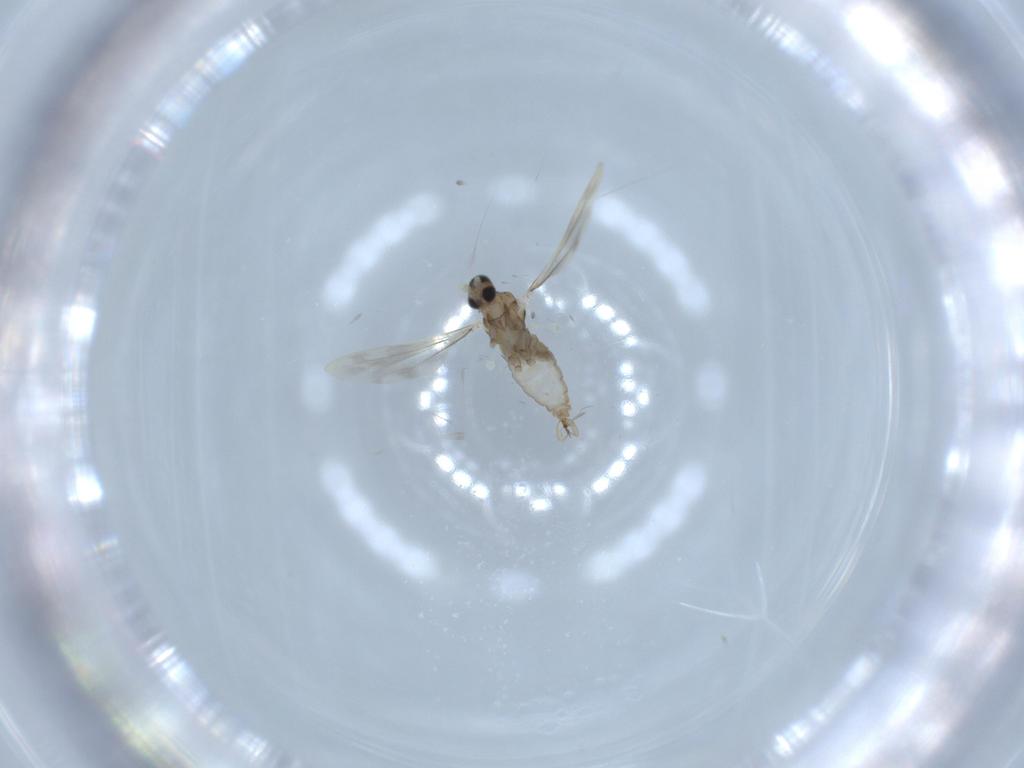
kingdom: Animalia
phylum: Arthropoda
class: Insecta
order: Diptera
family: Cecidomyiidae
